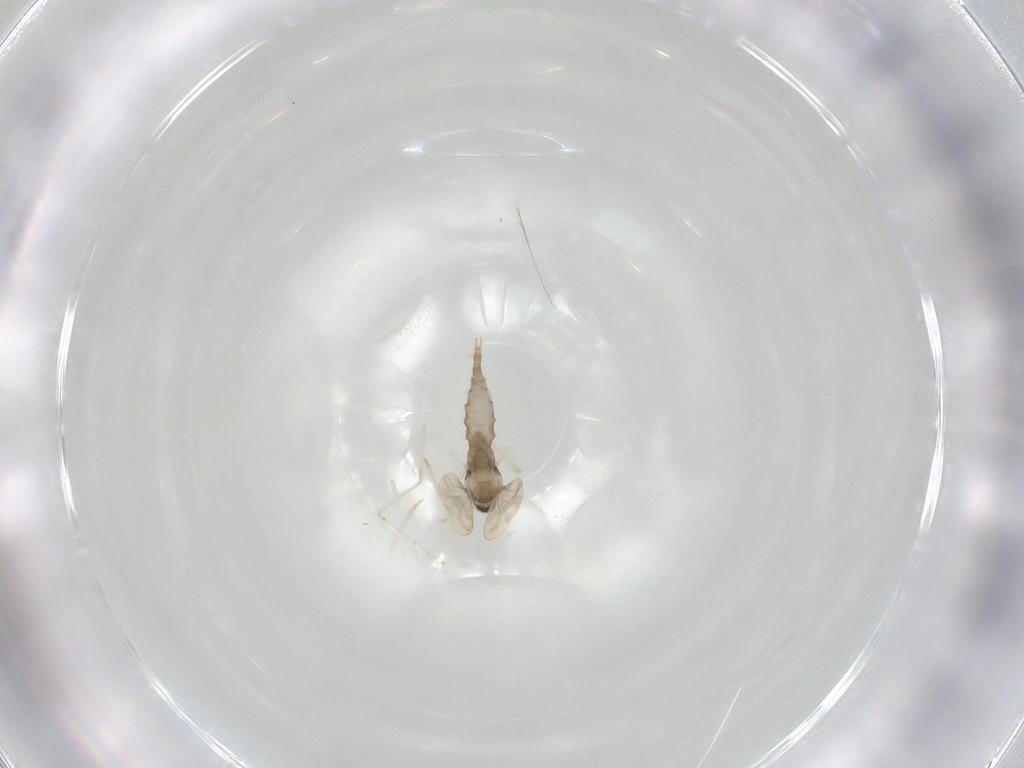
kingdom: Animalia
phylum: Arthropoda
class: Insecta
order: Diptera
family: Cecidomyiidae
